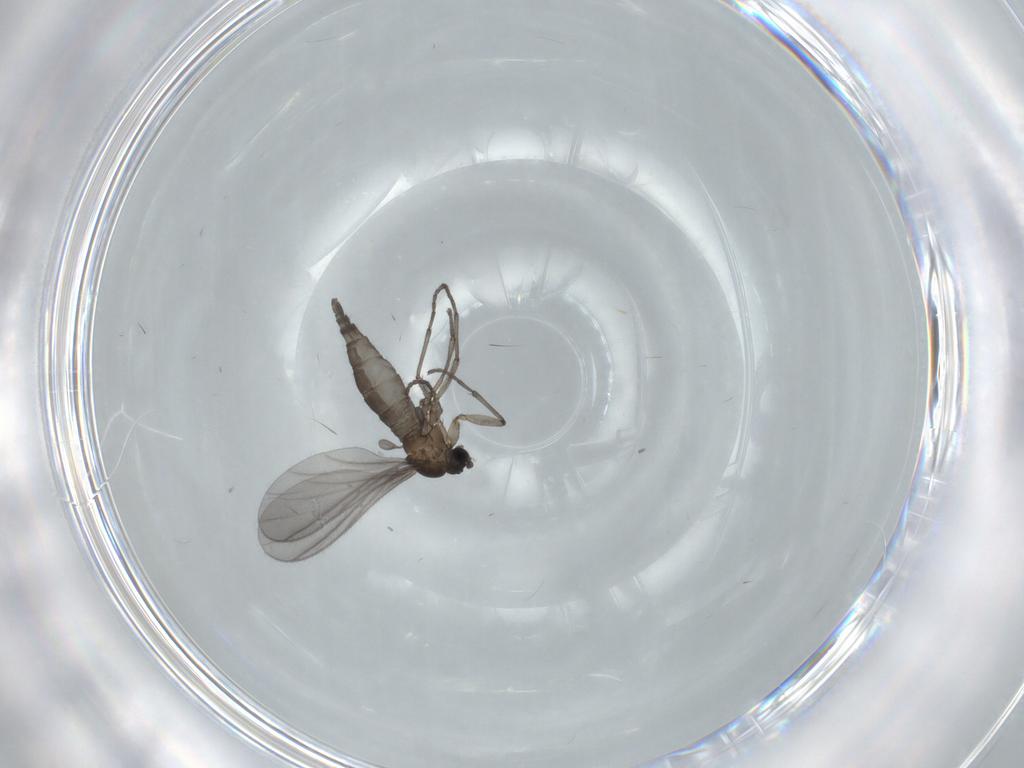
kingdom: Animalia
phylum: Arthropoda
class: Insecta
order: Diptera
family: Sciaridae
